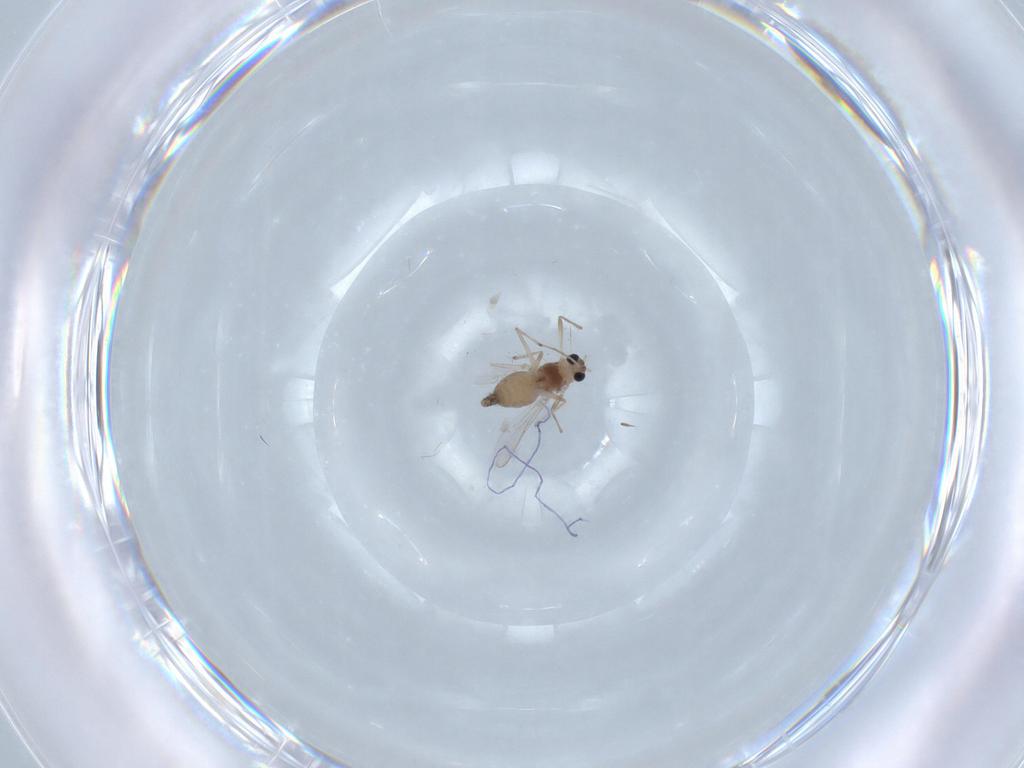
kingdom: Animalia
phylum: Arthropoda
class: Insecta
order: Diptera
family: Chironomidae
